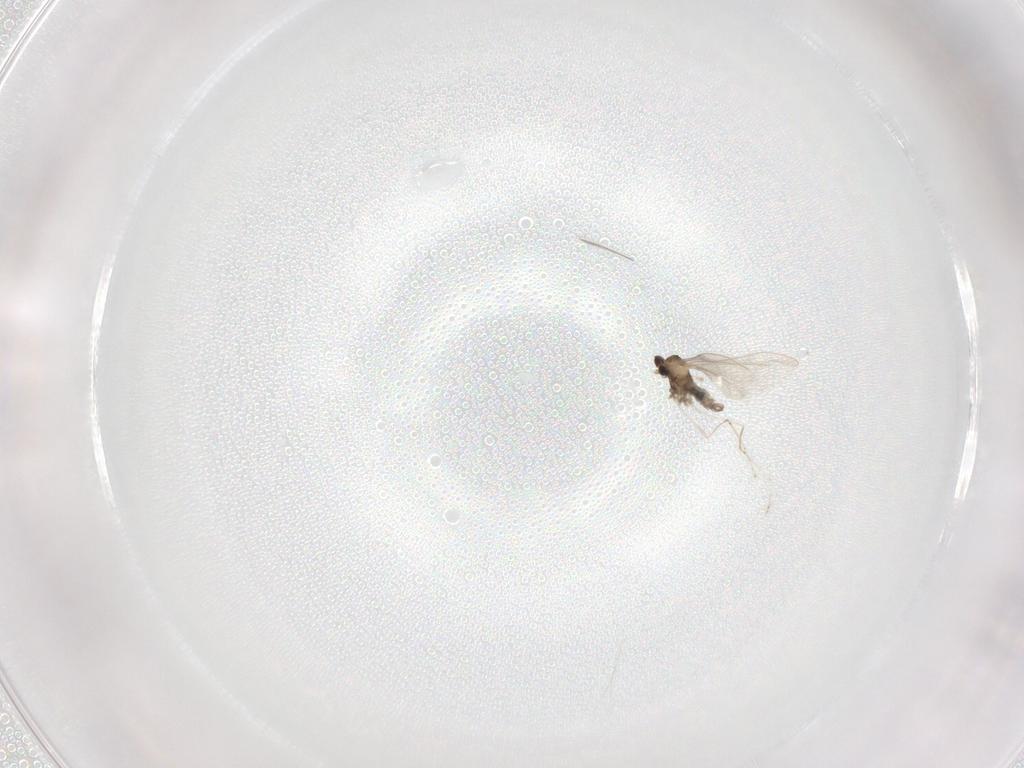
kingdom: Animalia
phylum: Arthropoda
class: Insecta
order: Diptera
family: Cecidomyiidae
